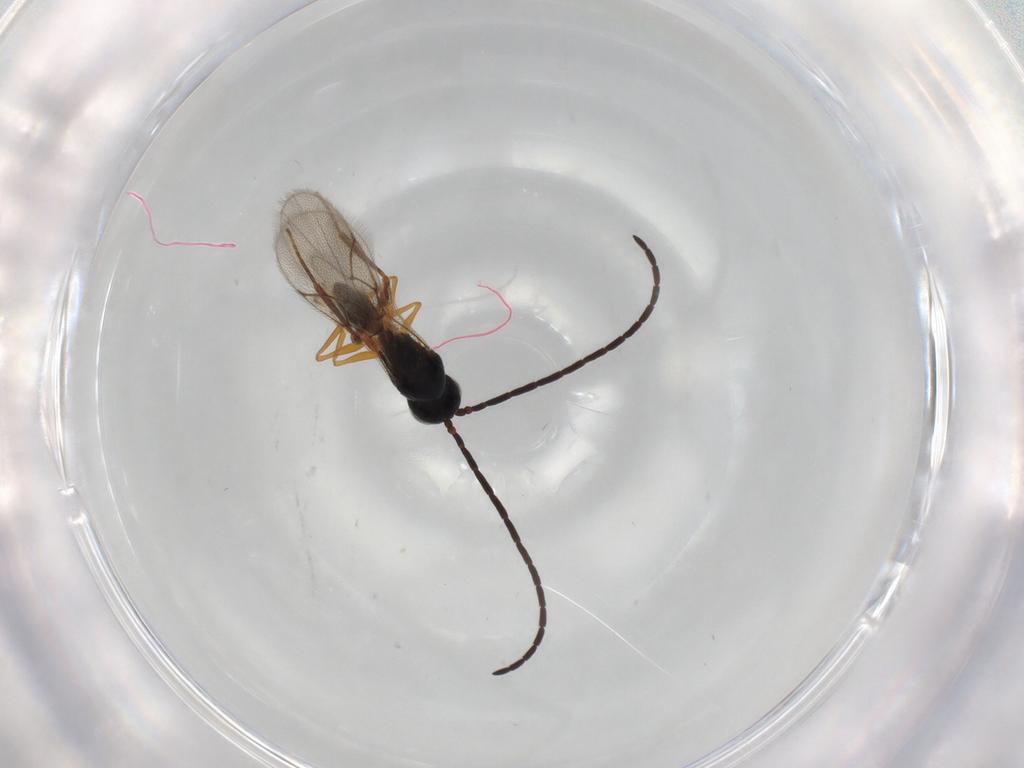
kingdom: Animalia
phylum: Arthropoda
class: Insecta
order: Hymenoptera
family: Figitidae
